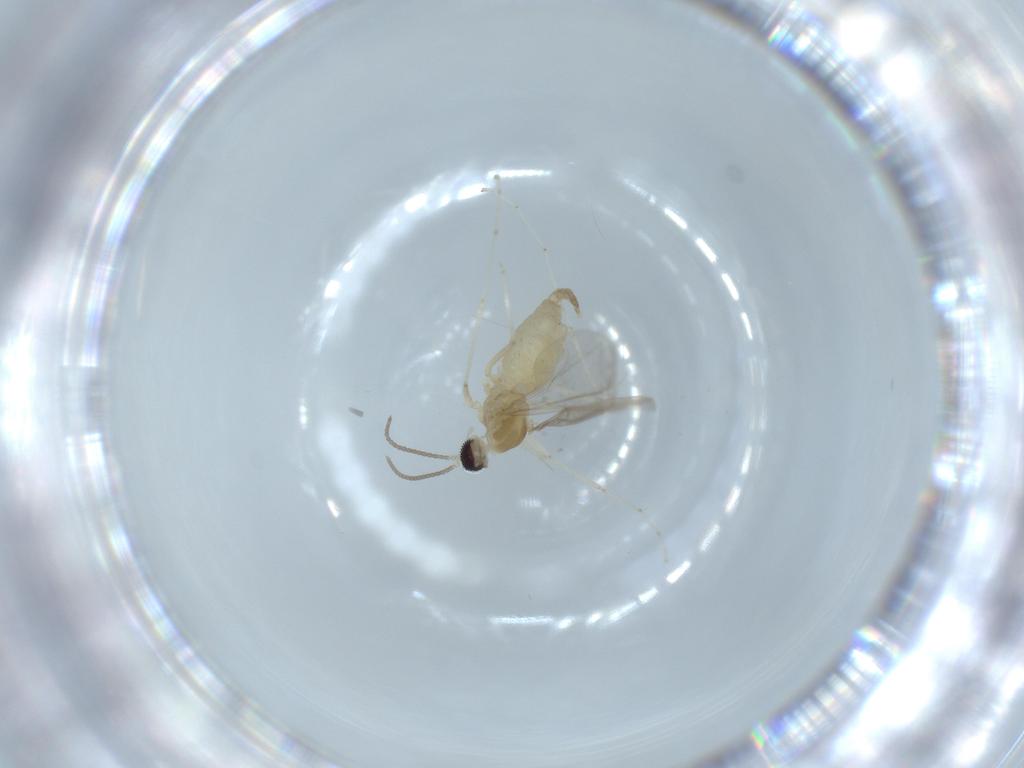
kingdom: Animalia
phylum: Arthropoda
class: Insecta
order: Diptera
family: Cecidomyiidae
